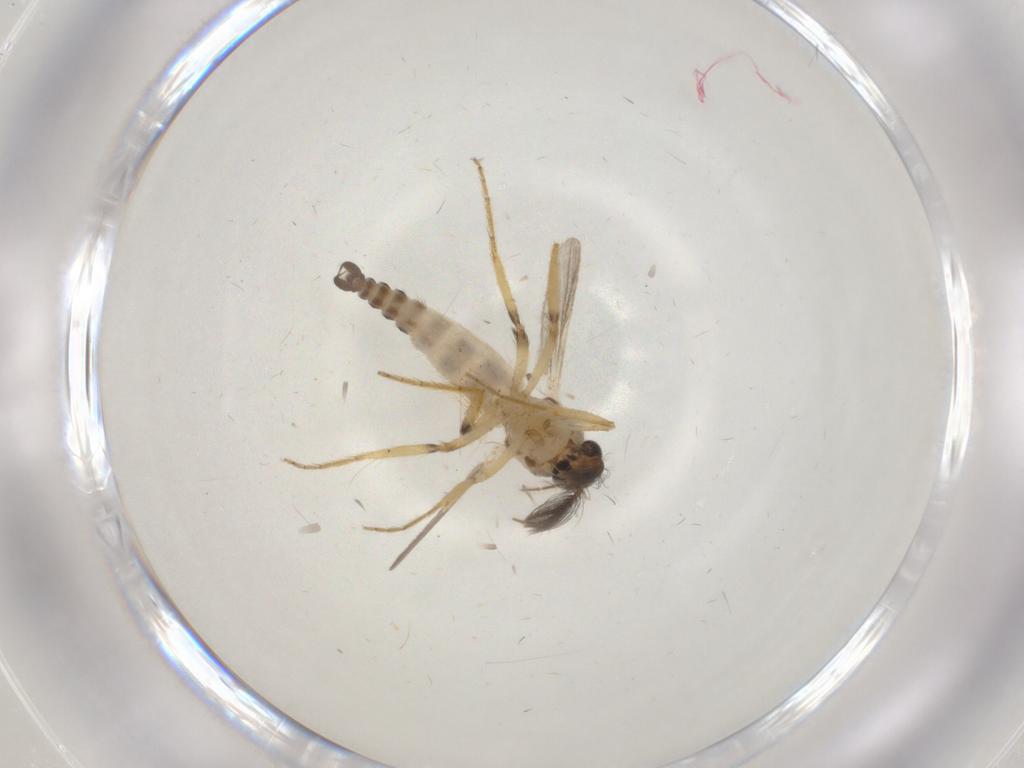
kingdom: Animalia
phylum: Arthropoda
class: Insecta
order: Diptera
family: Ceratopogonidae
